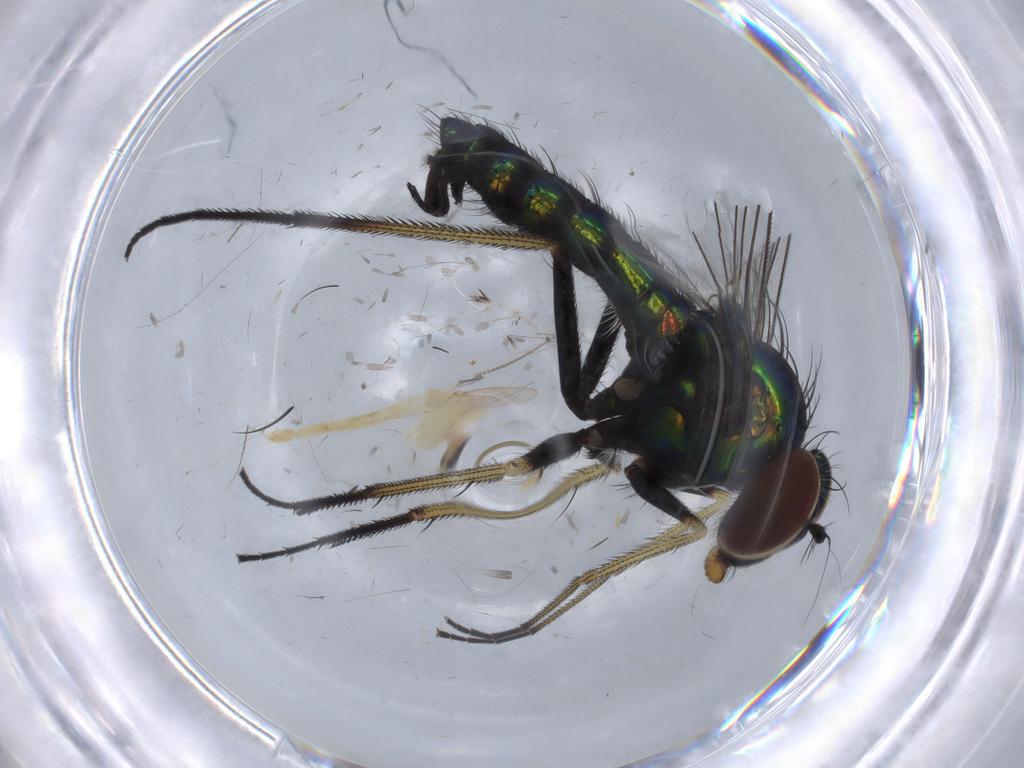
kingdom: Animalia
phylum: Arthropoda
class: Insecta
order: Diptera
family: Dolichopodidae
